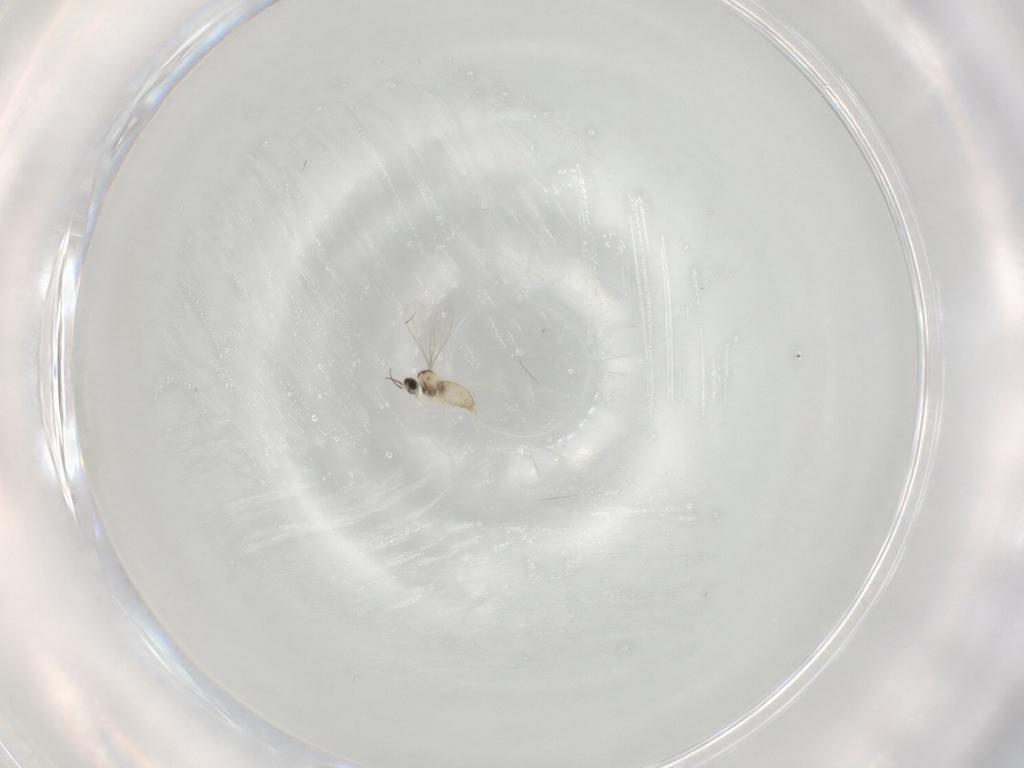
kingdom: Animalia
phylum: Arthropoda
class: Insecta
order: Diptera
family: Cecidomyiidae
